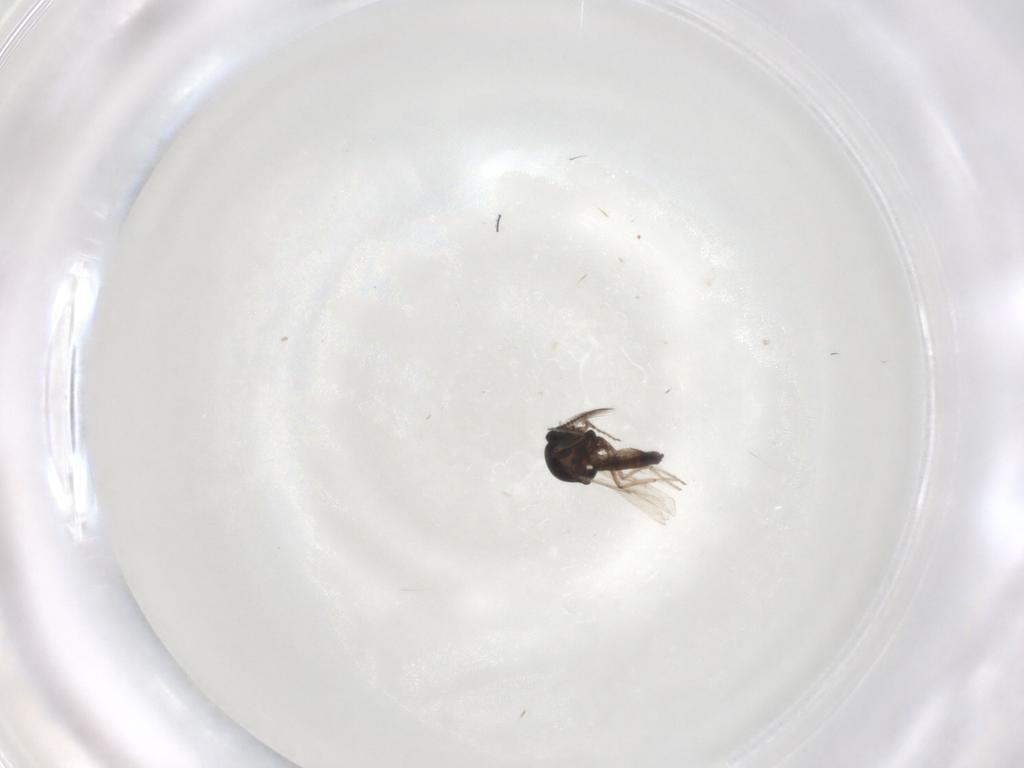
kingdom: Animalia
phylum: Arthropoda
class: Insecta
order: Diptera
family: Ceratopogonidae
